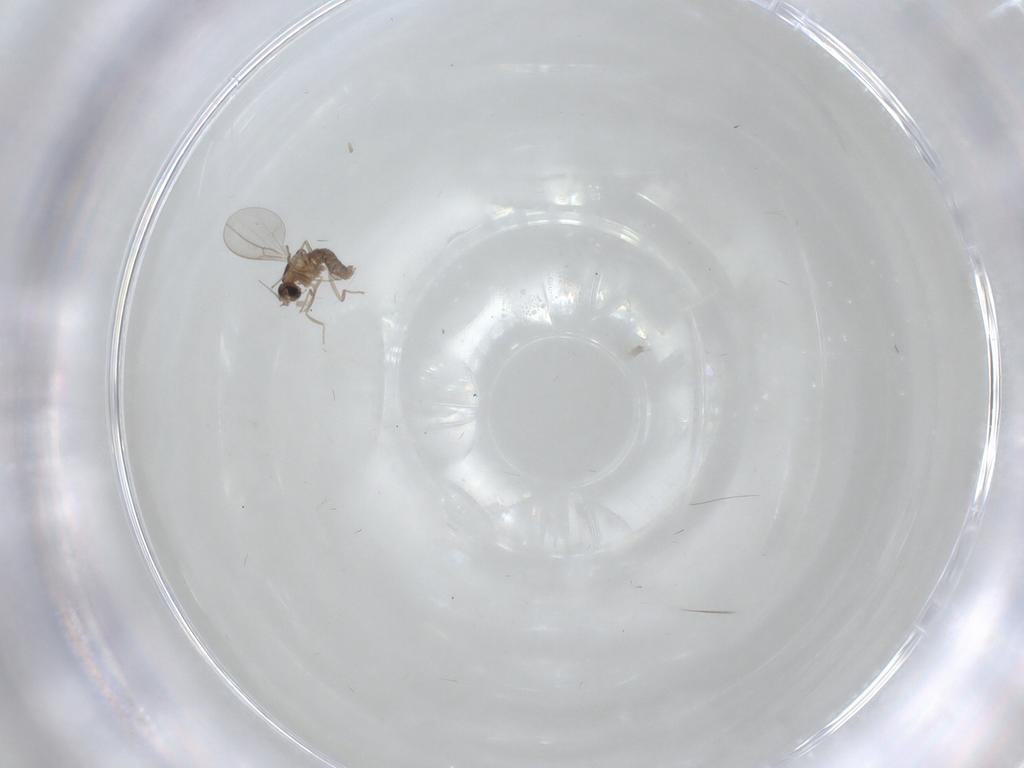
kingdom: Animalia
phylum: Arthropoda
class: Insecta
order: Diptera
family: Mycetophilidae
